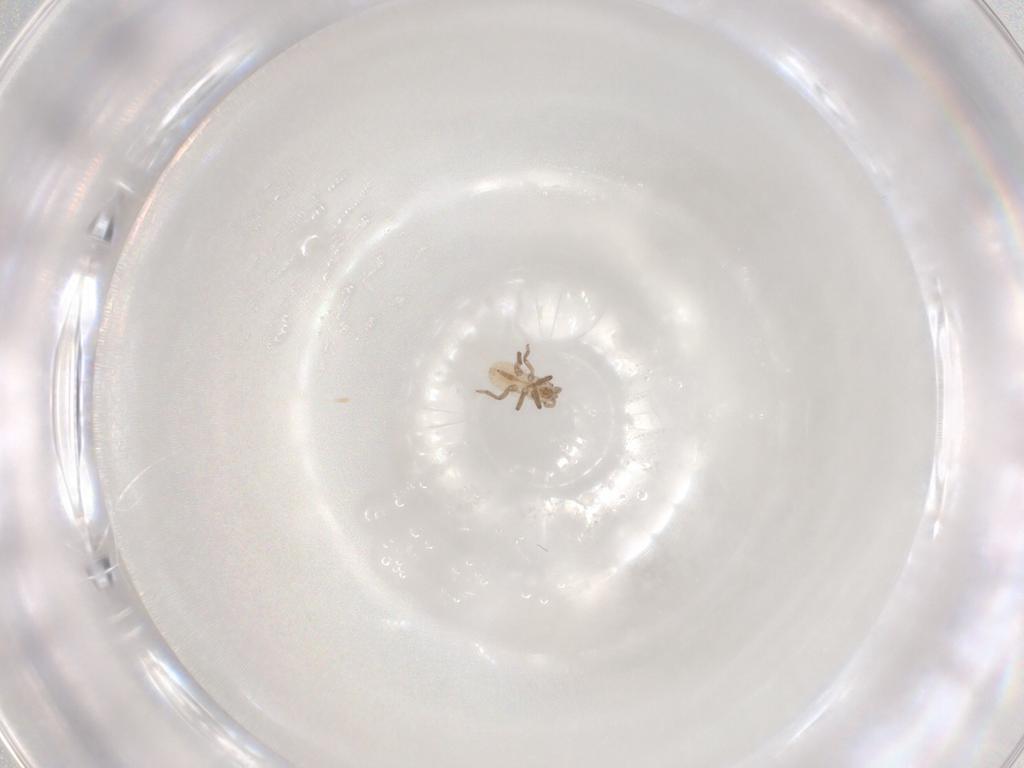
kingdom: Animalia
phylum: Arthropoda
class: Insecta
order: Hemiptera
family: Aphididae
